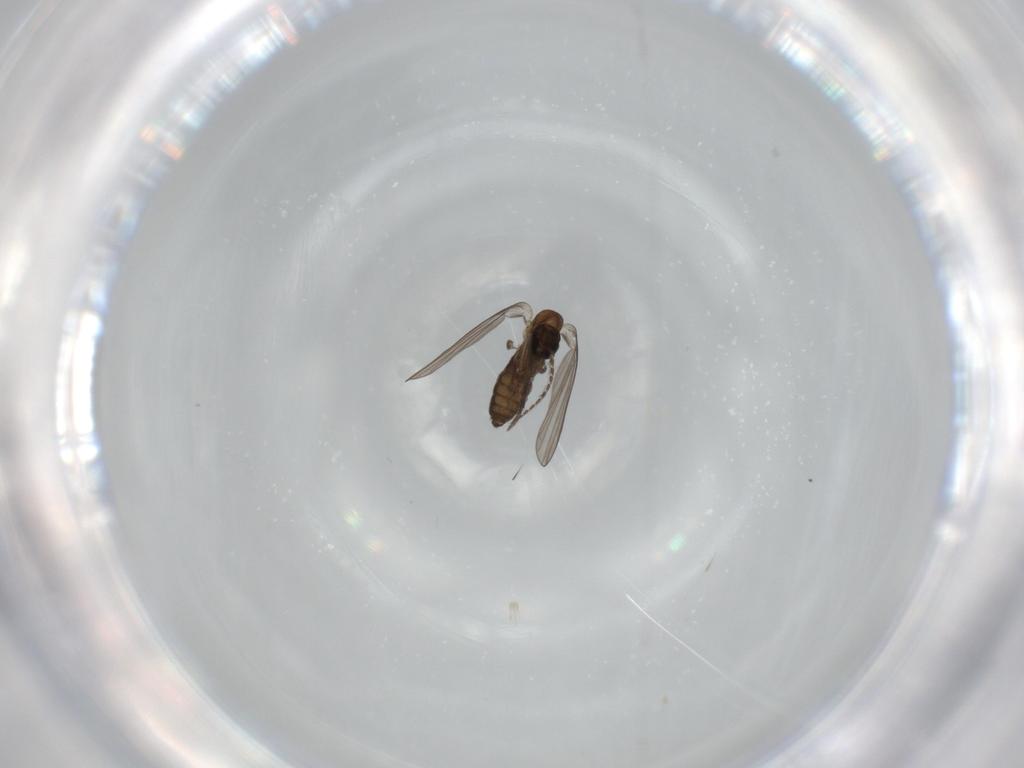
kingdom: Animalia
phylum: Arthropoda
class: Insecta
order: Diptera
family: Psychodidae
